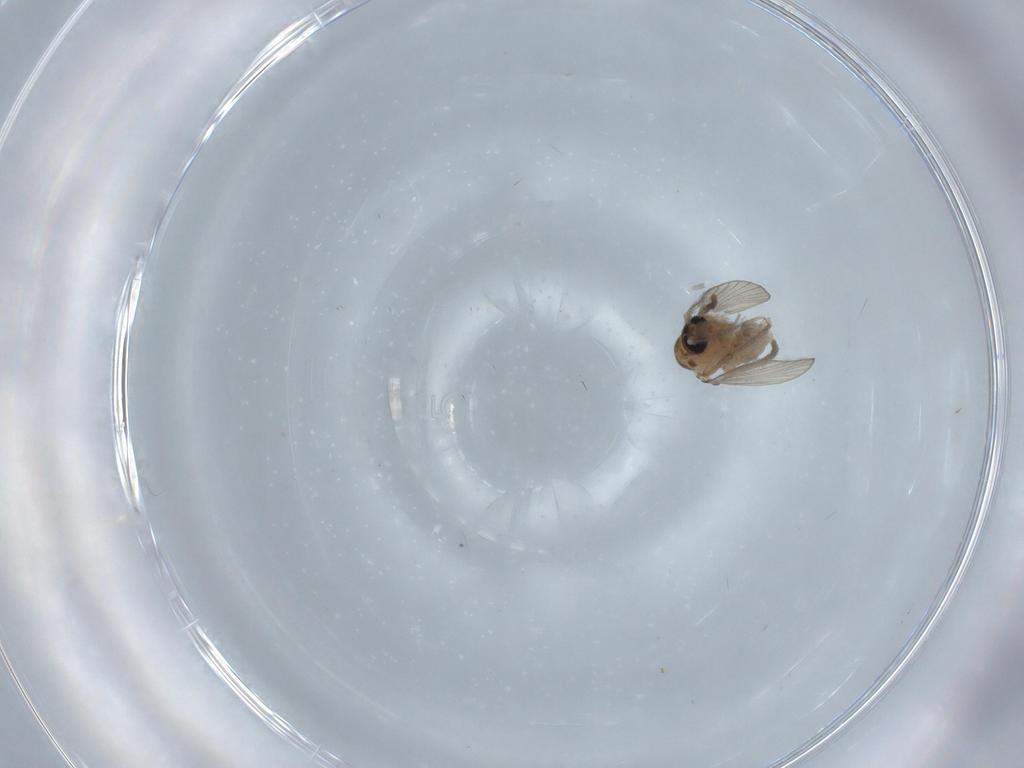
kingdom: Animalia
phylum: Arthropoda
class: Insecta
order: Diptera
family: Psychodidae
